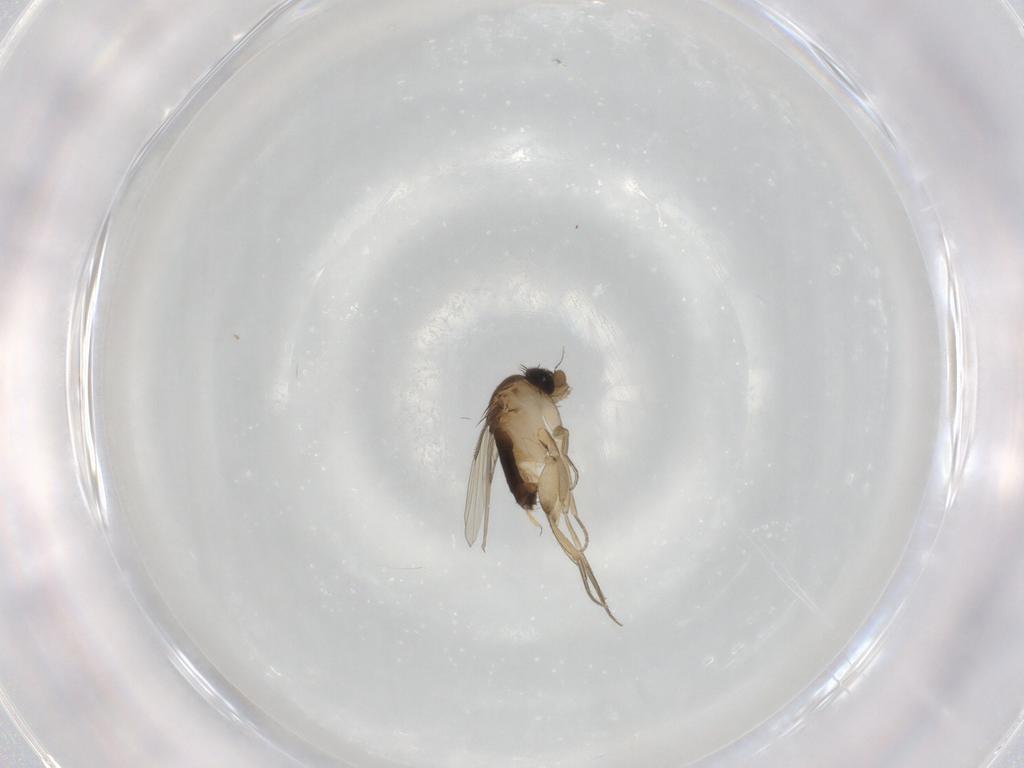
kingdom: Animalia
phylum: Arthropoda
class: Insecta
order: Diptera
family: Phoridae
